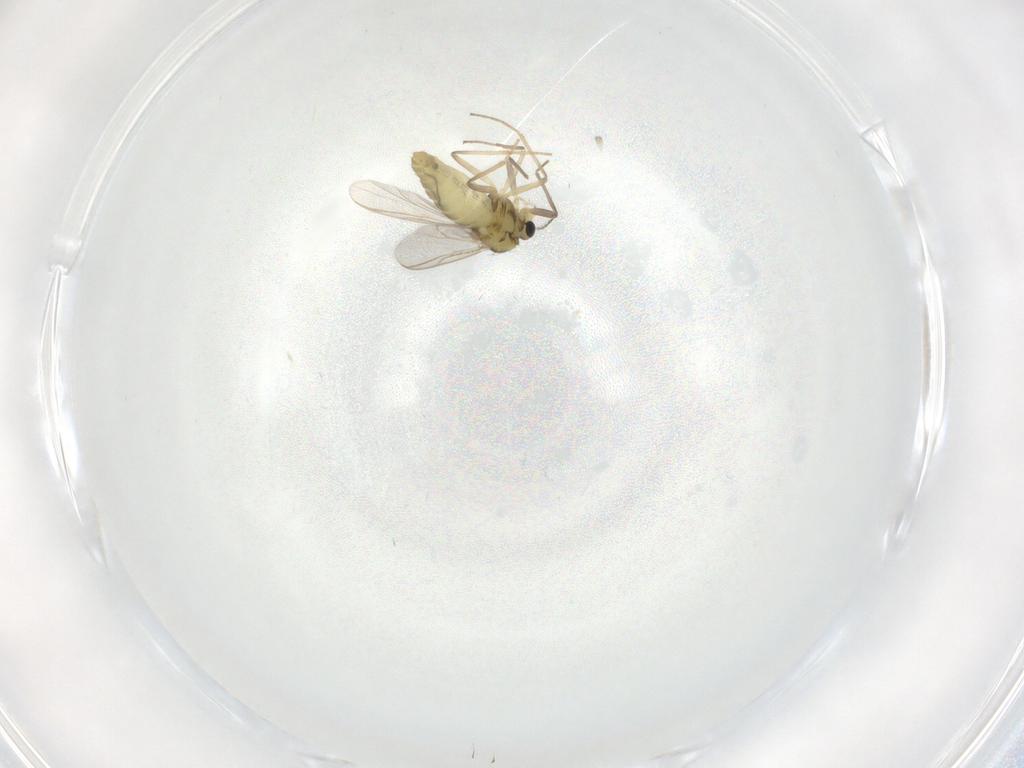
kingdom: Animalia
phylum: Arthropoda
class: Insecta
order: Diptera
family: Chironomidae
